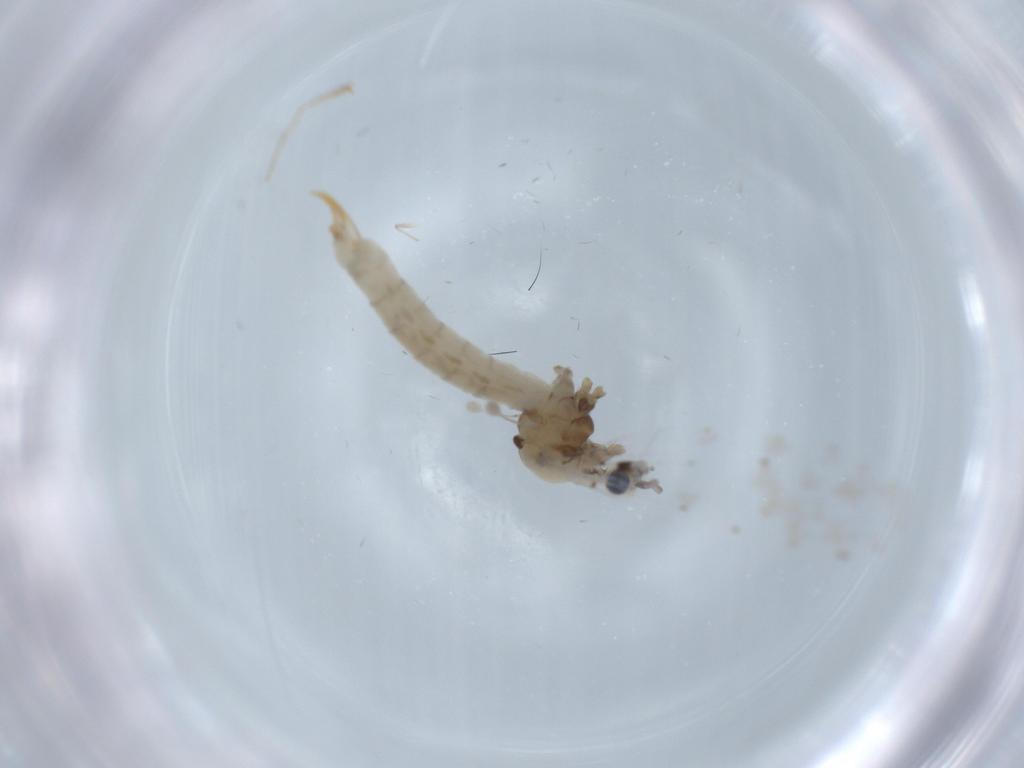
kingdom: Animalia
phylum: Arthropoda
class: Insecta
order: Diptera
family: Limoniidae
